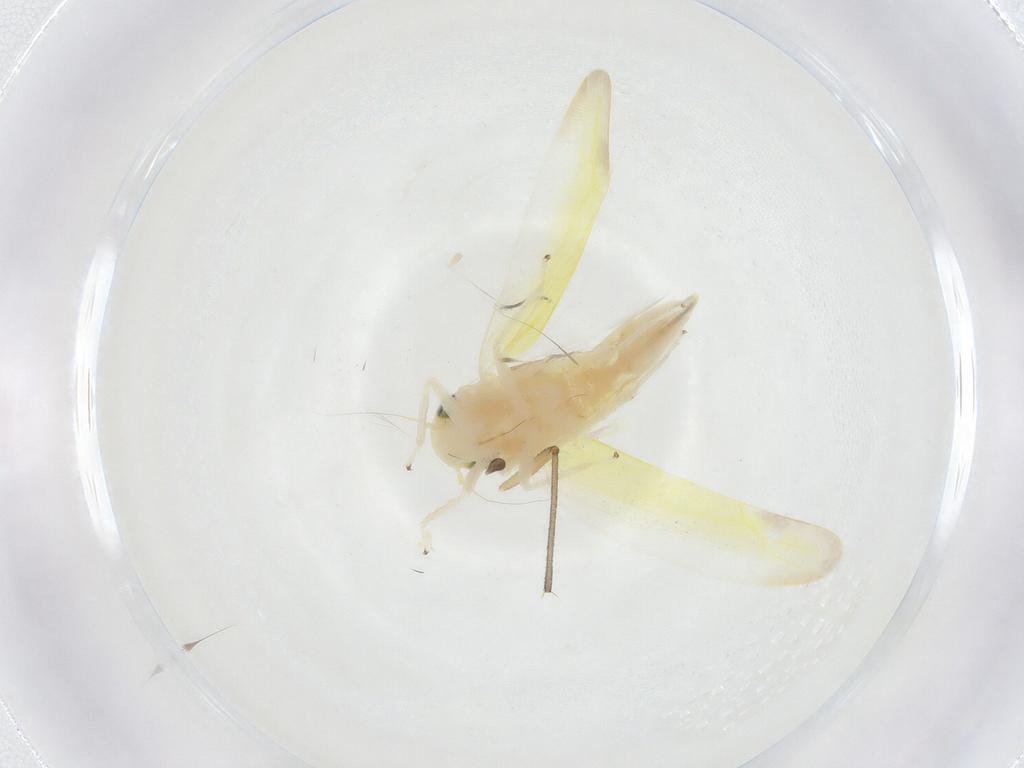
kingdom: Animalia
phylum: Arthropoda
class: Insecta
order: Hemiptera
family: Cicadellidae
